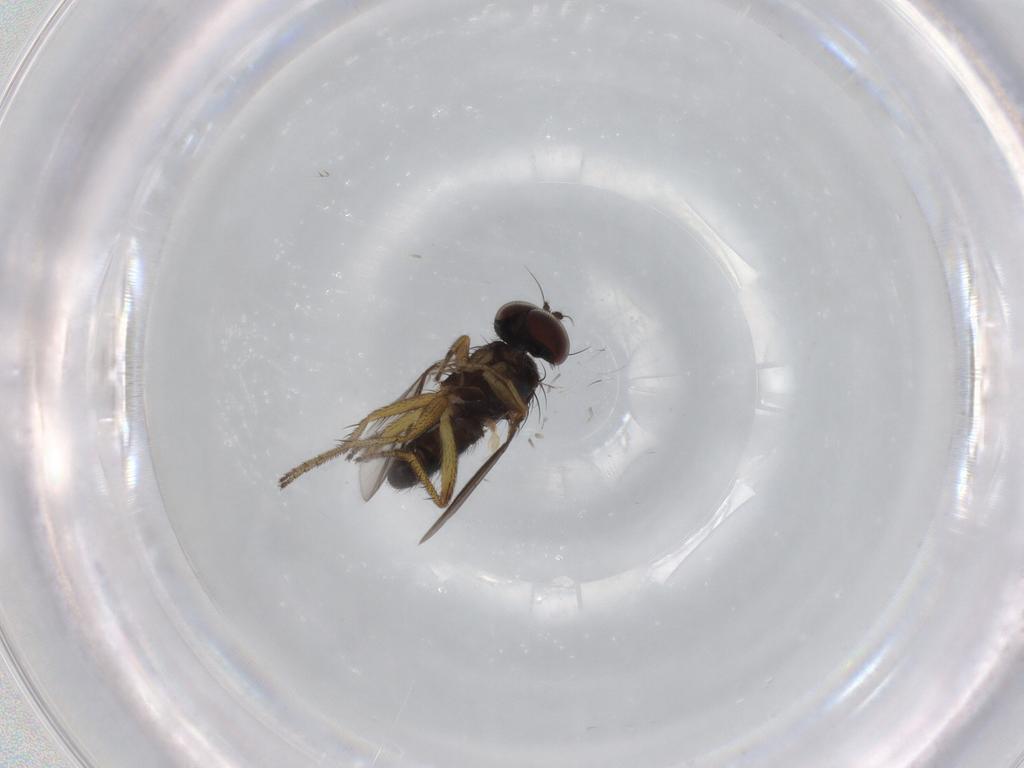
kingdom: Animalia
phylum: Arthropoda
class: Insecta
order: Diptera
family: Dolichopodidae
